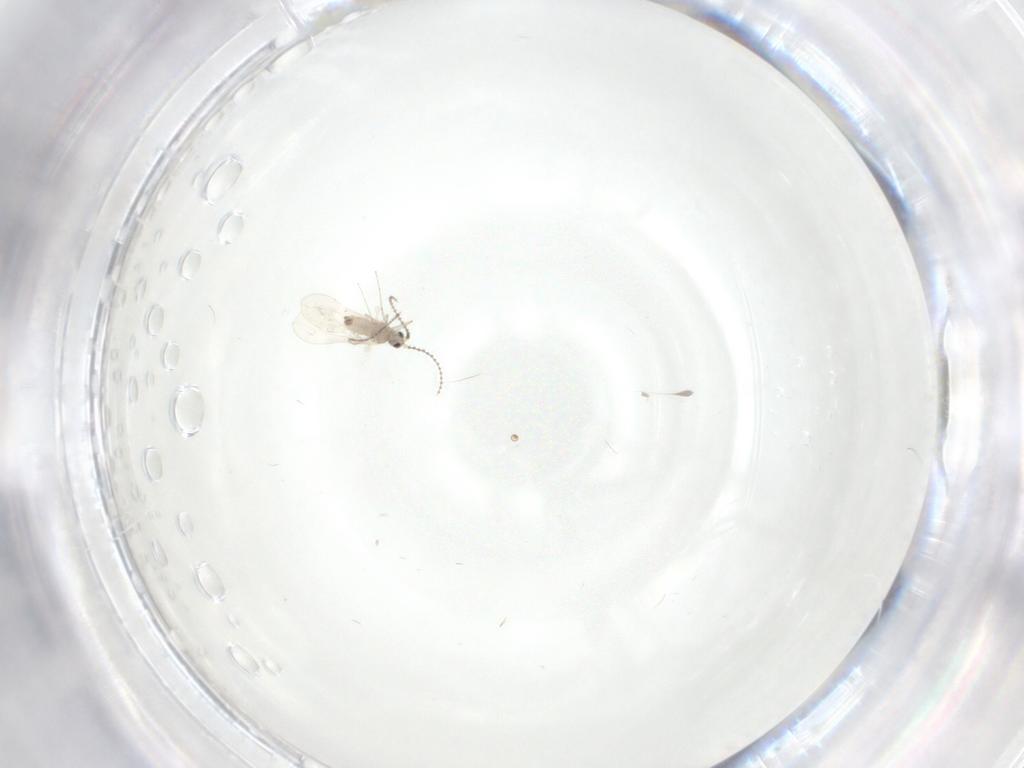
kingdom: Animalia
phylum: Arthropoda
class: Insecta
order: Diptera
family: Cecidomyiidae
